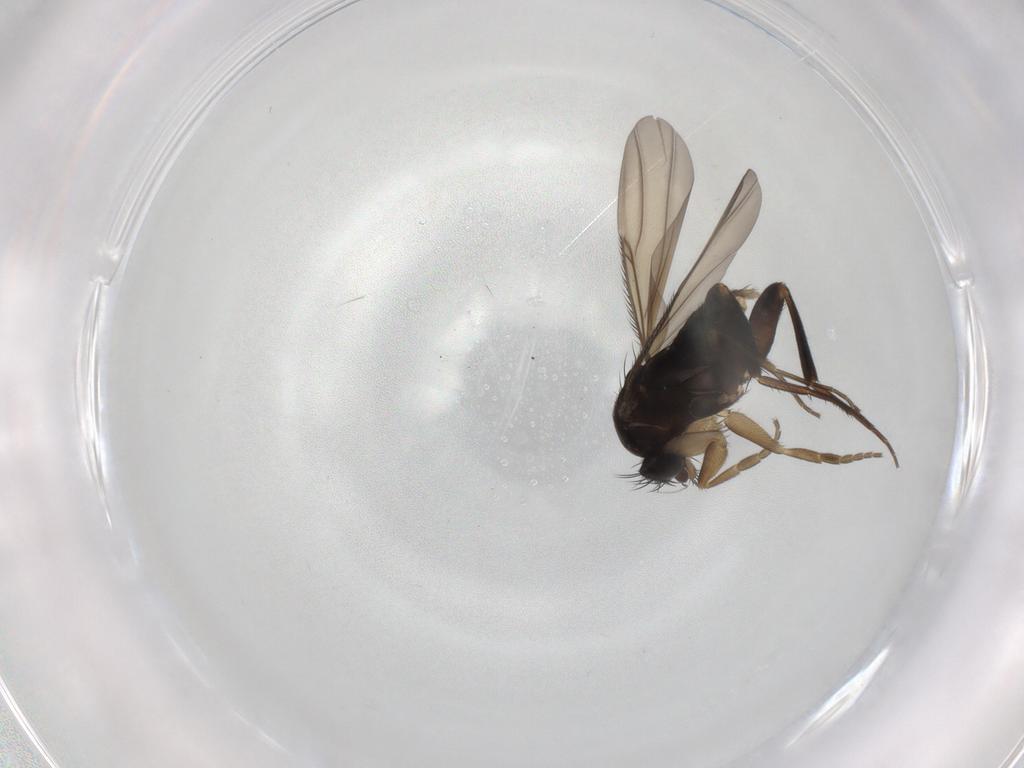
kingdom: Animalia
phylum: Arthropoda
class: Insecta
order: Diptera
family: Phoridae
